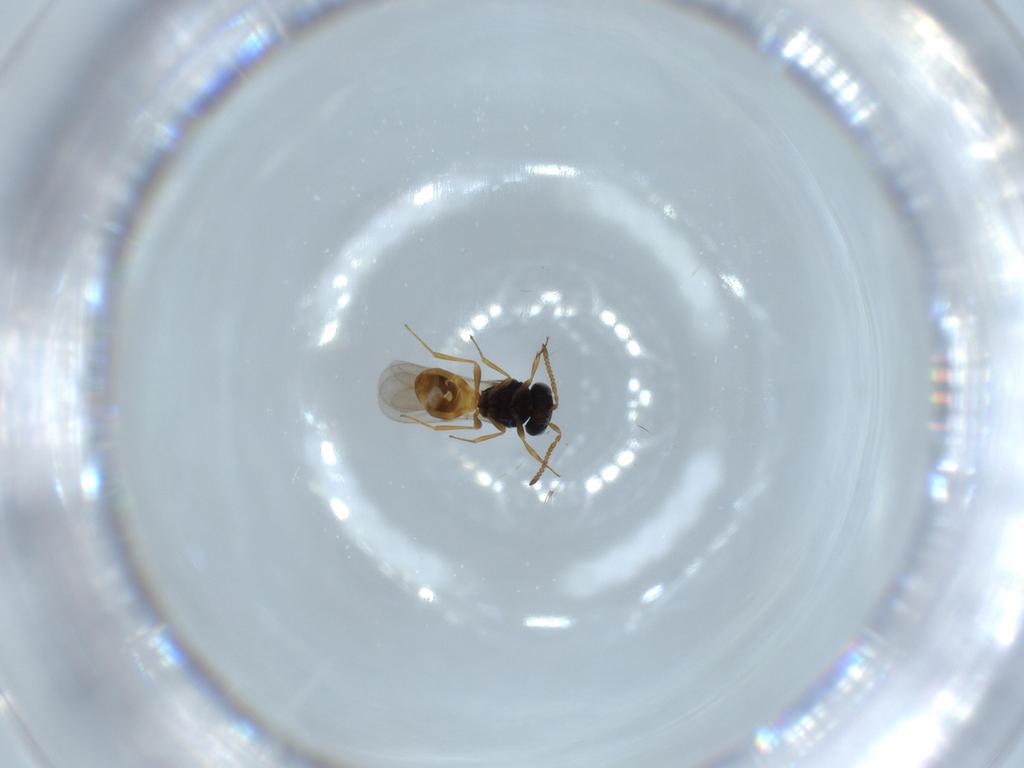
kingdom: Animalia
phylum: Arthropoda
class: Insecta
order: Hymenoptera
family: Scelionidae
